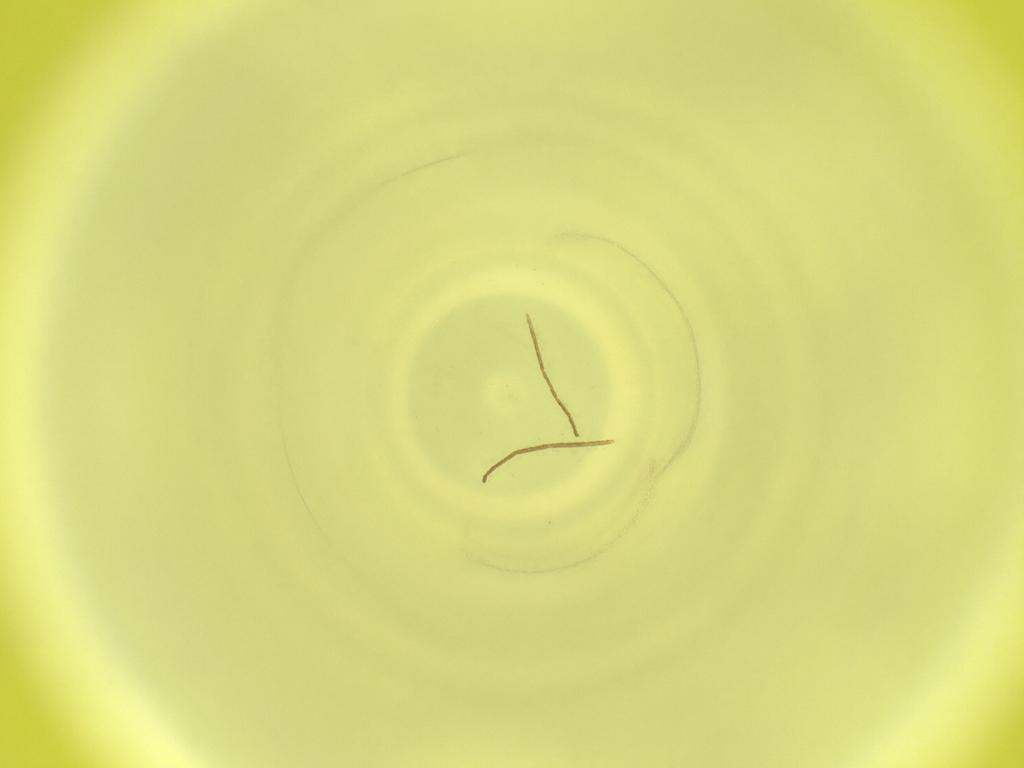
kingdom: Animalia
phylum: Arthropoda
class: Insecta
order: Diptera
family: Cecidomyiidae
